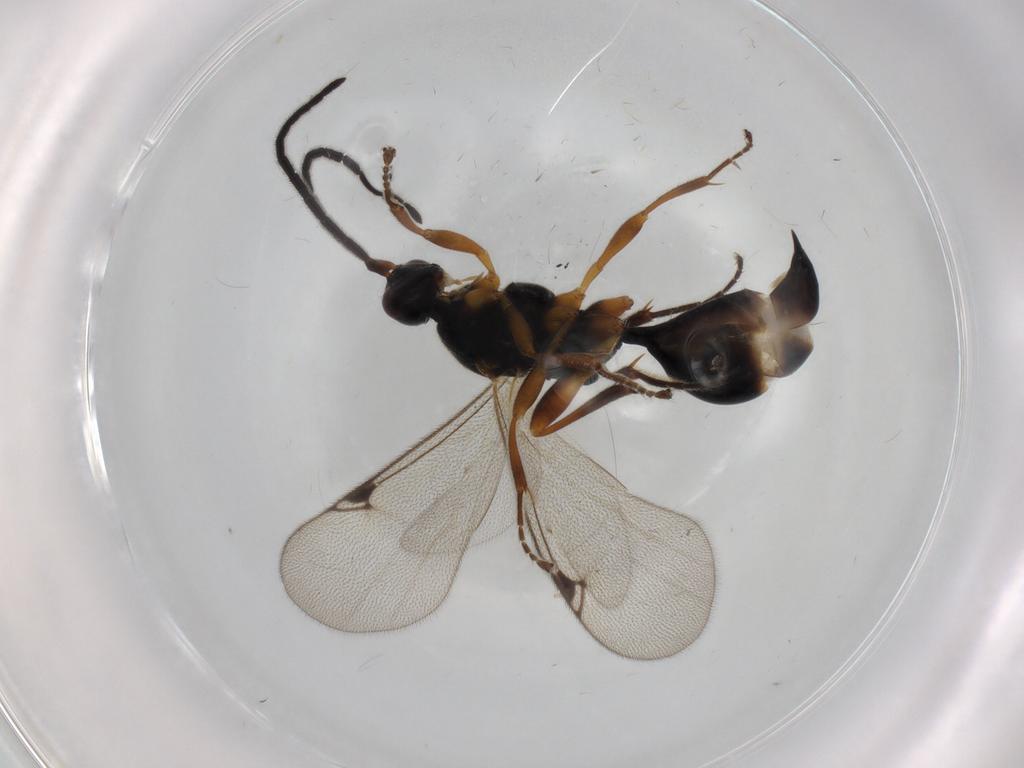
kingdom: Animalia
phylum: Arthropoda
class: Insecta
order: Hymenoptera
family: Proctotrupidae
